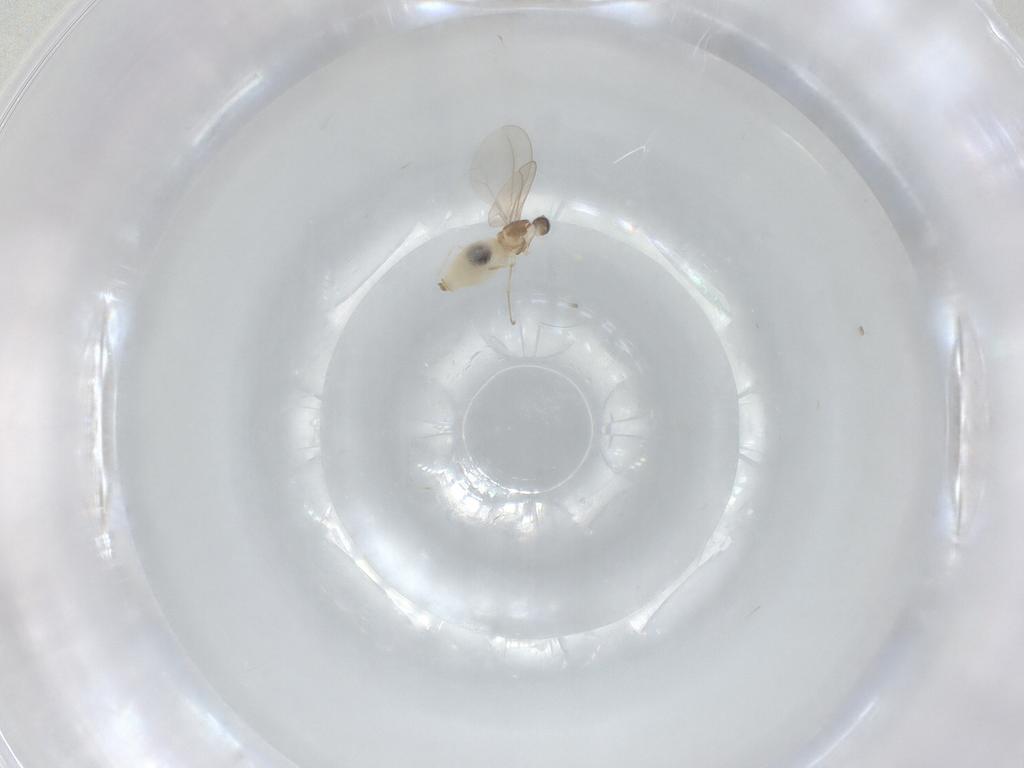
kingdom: Animalia
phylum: Arthropoda
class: Insecta
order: Diptera
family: Cecidomyiidae
